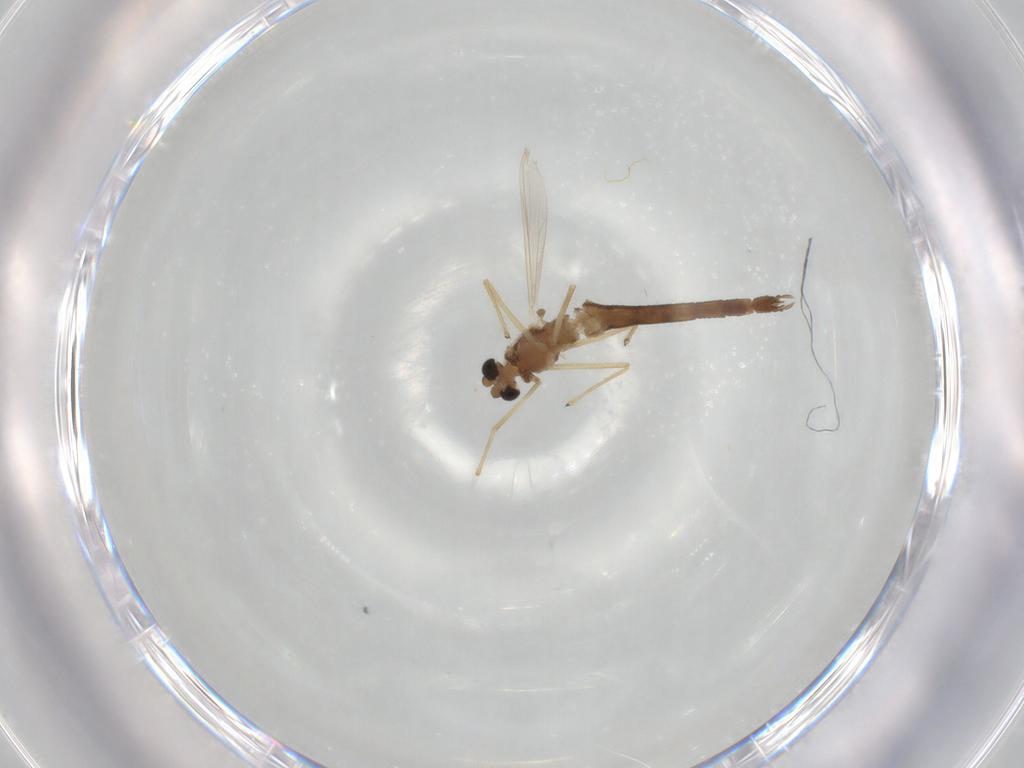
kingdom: Animalia
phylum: Arthropoda
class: Insecta
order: Diptera
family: Chironomidae
